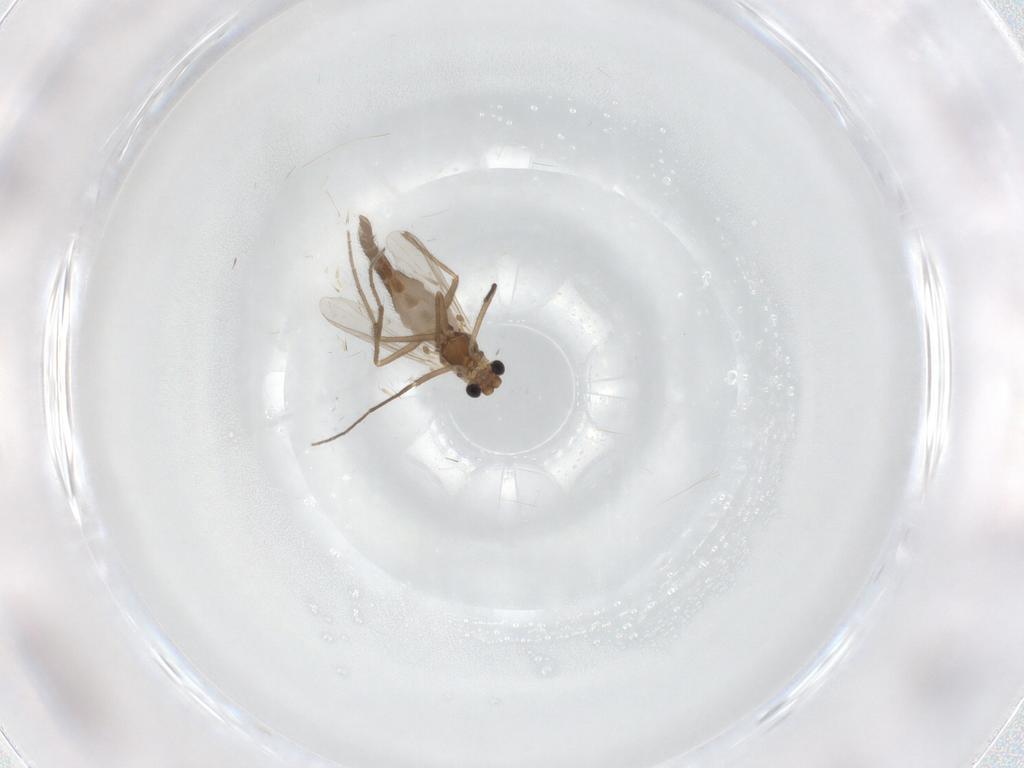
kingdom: Animalia
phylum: Arthropoda
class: Insecta
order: Diptera
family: Chironomidae
